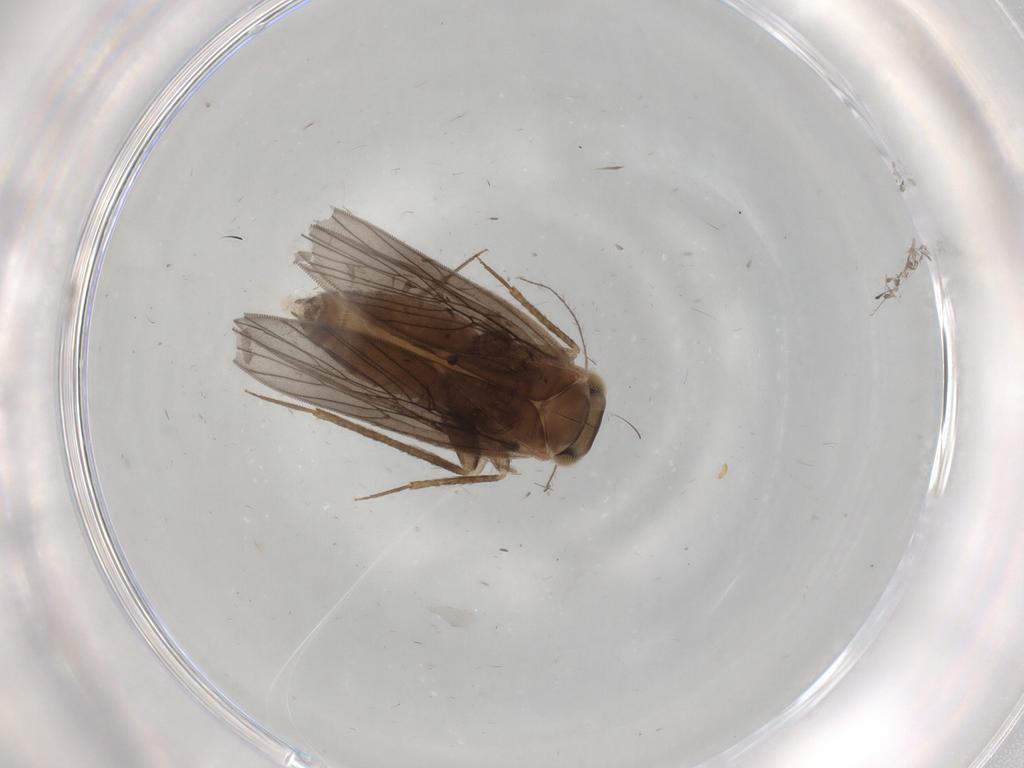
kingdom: Animalia
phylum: Arthropoda
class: Insecta
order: Psocodea
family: Lepidopsocidae
